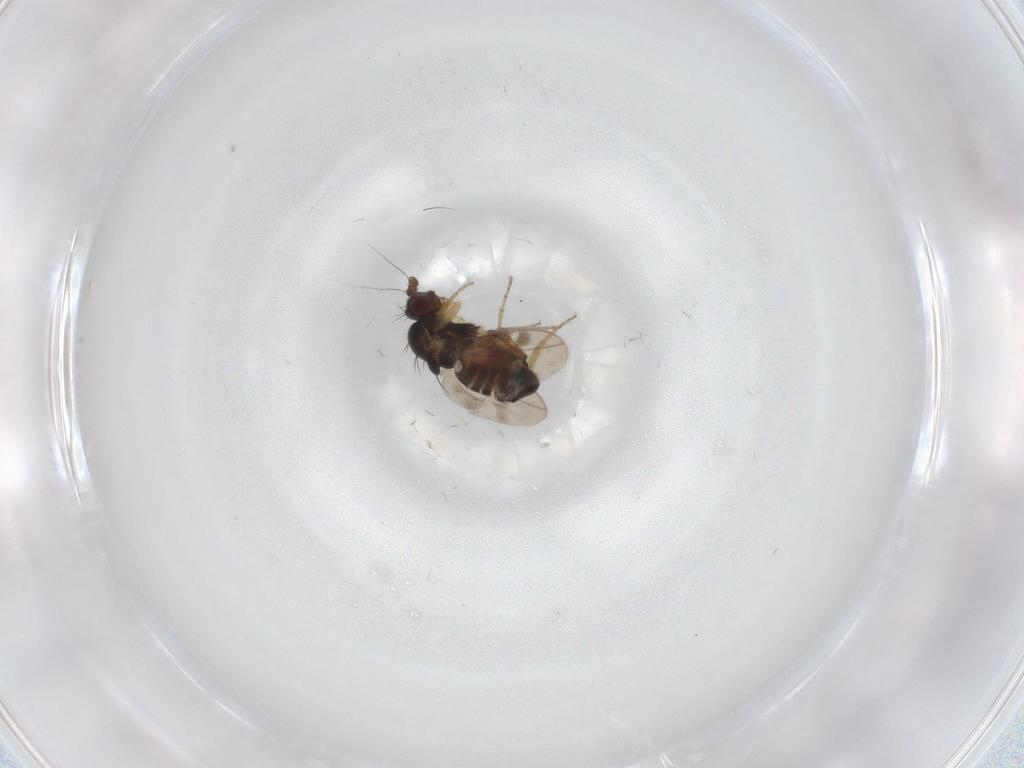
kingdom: Animalia
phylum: Arthropoda
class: Insecta
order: Diptera
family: Sphaeroceridae
